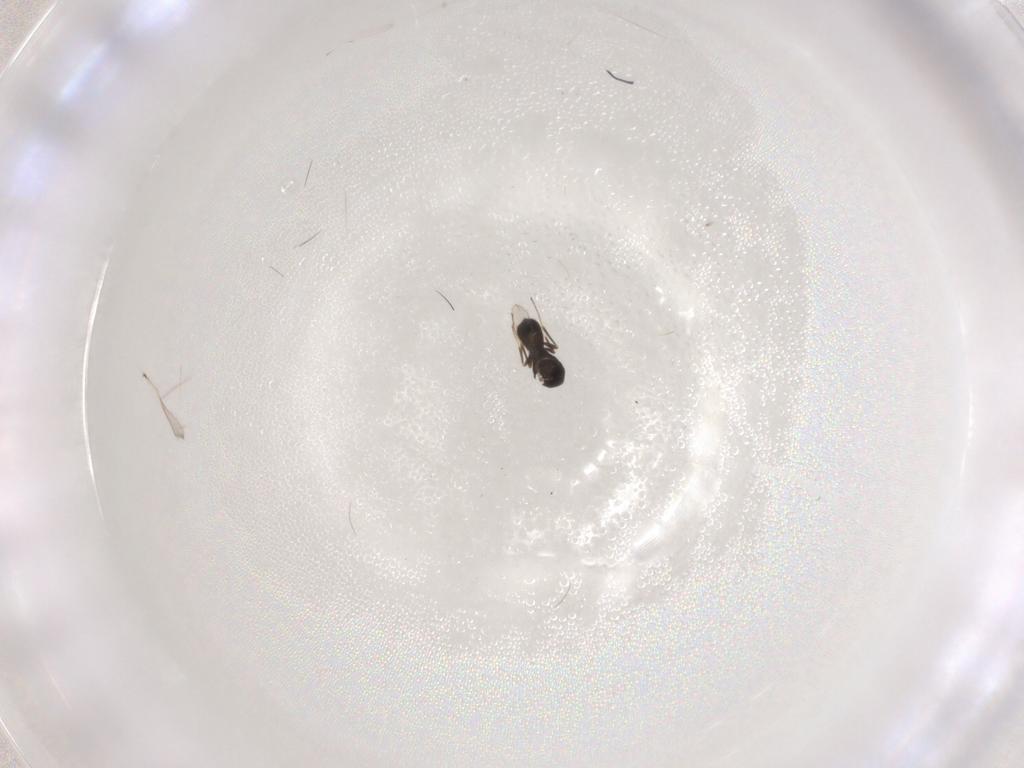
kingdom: Animalia
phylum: Arthropoda
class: Insecta
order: Hymenoptera
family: Scelionidae
